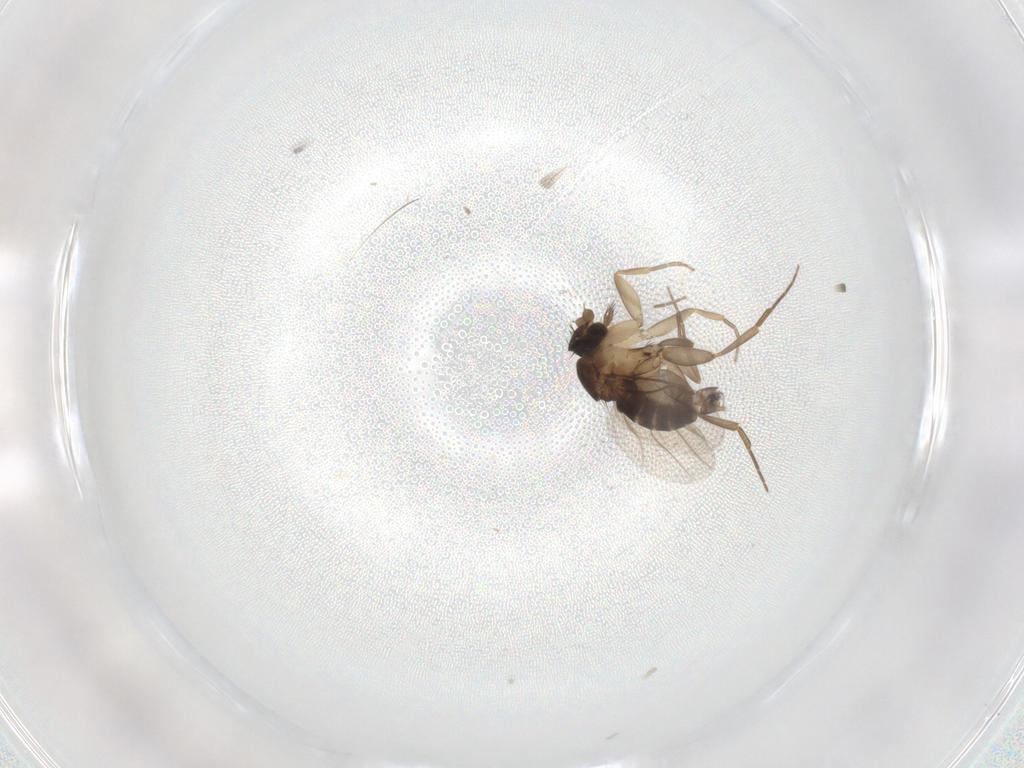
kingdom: Animalia
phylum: Arthropoda
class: Insecta
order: Diptera
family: Phoridae
